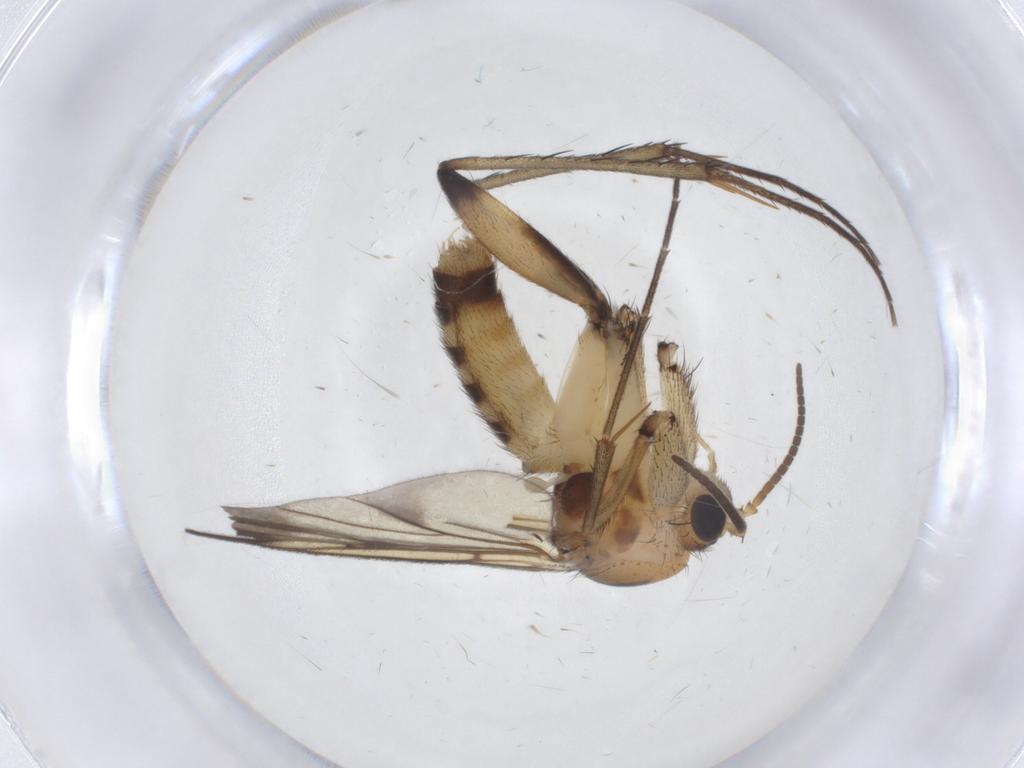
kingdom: Animalia
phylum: Arthropoda
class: Insecta
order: Diptera
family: Mycetophilidae
